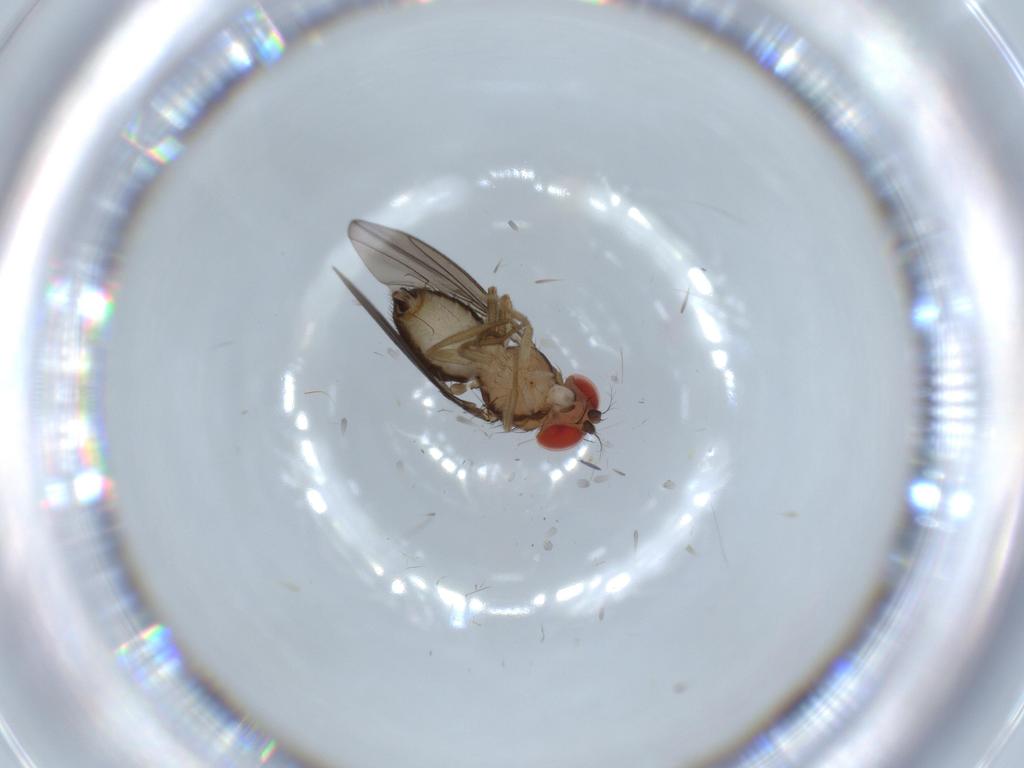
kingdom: Animalia
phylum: Arthropoda
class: Insecta
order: Diptera
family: Drosophilidae
